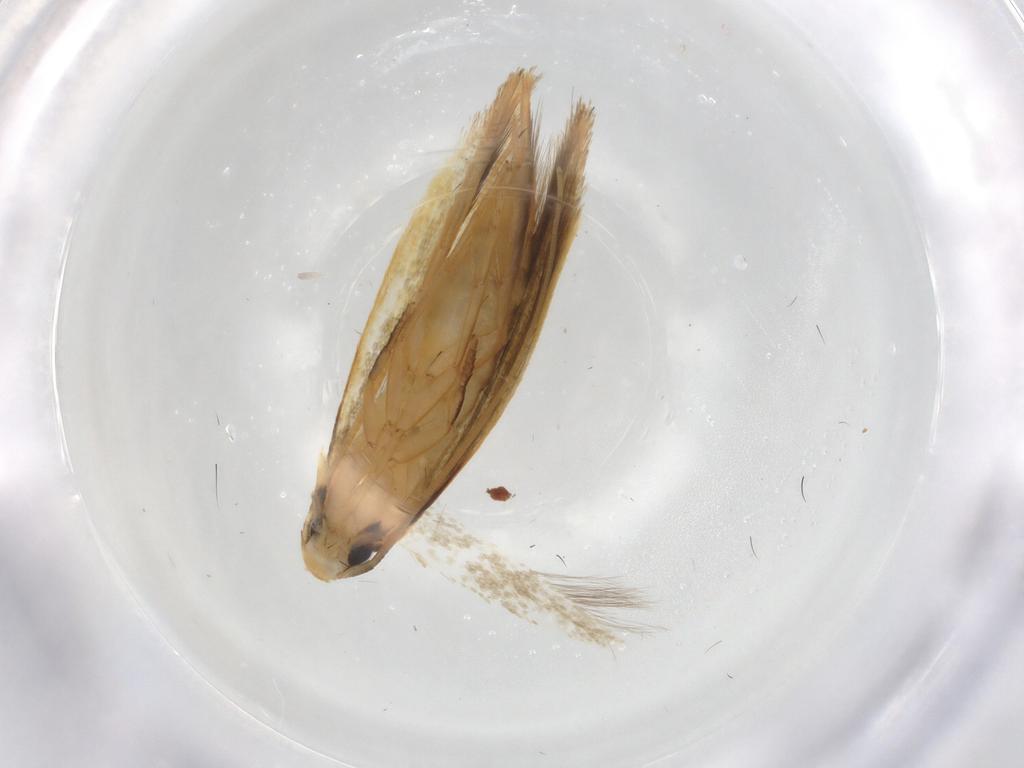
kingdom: Animalia
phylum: Arthropoda
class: Insecta
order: Lepidoptera
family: Tineidae
